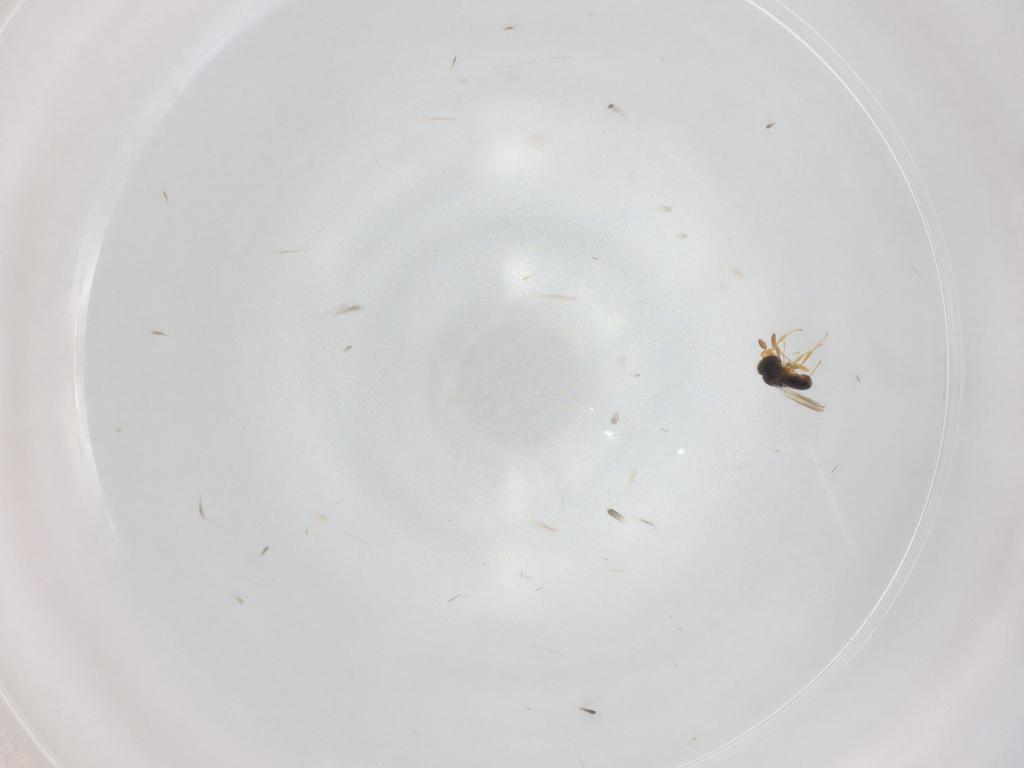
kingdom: Animalia
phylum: Arthropoda
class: Insecta
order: Hymenoptera
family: Platygastridae
